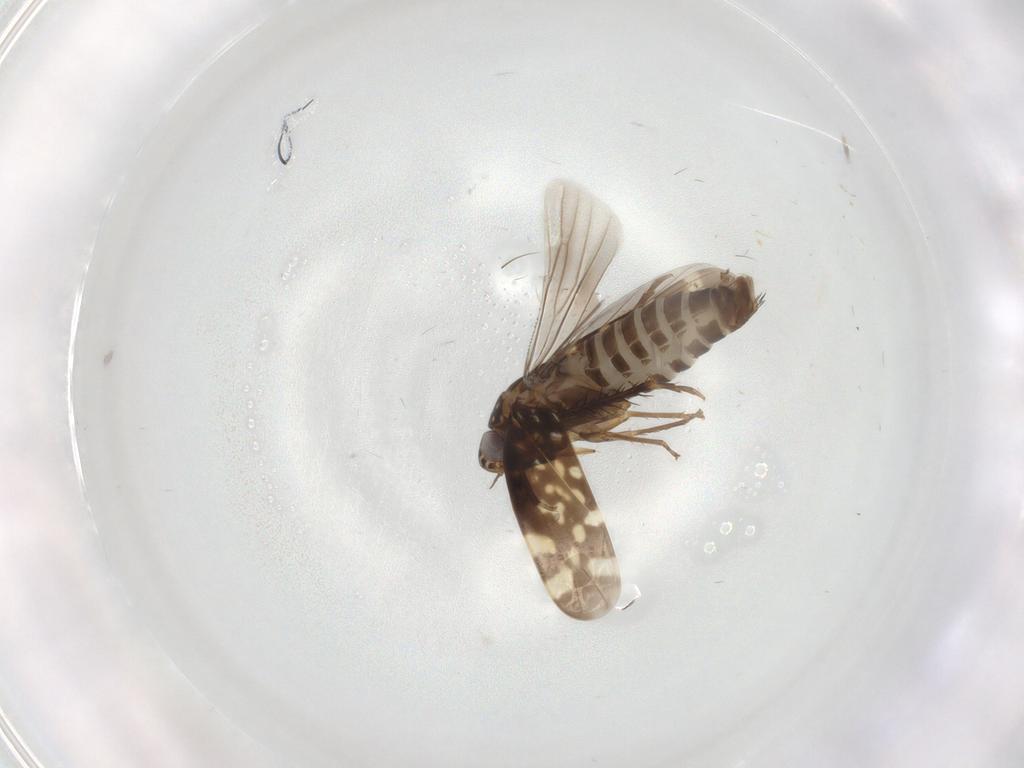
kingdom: Animalia
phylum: Arthropoda
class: Insecta
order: Hemiptera
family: Cicadellidae
